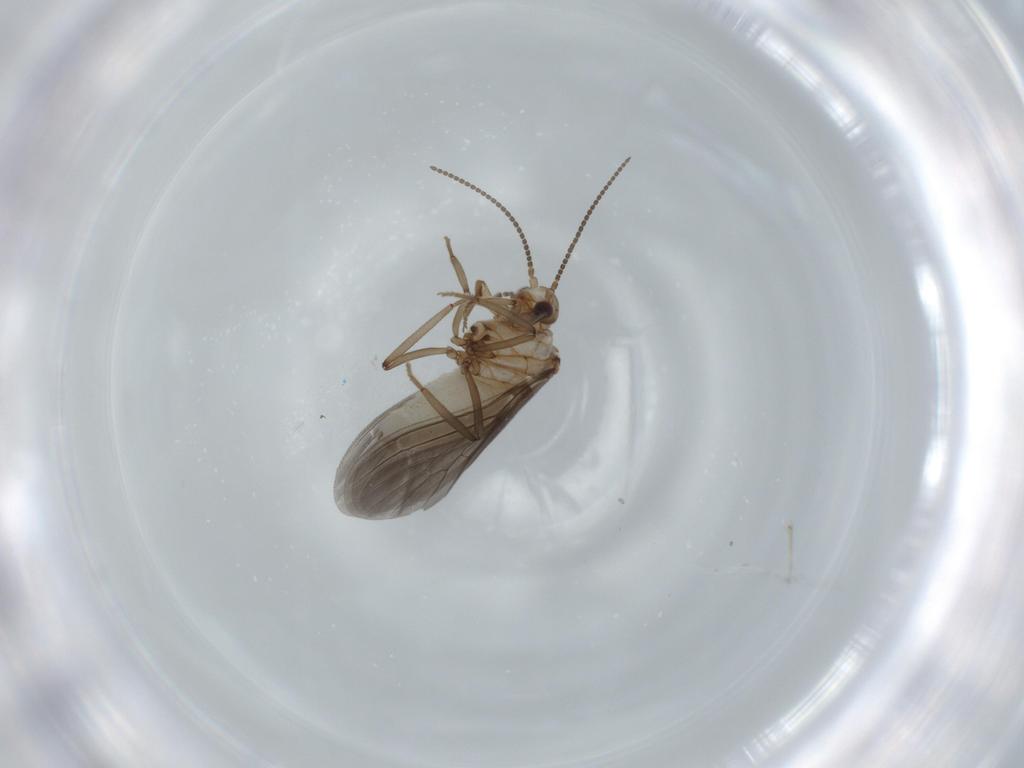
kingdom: Animalia
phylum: Arthropoda
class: Insecta
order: Neuroptera
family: Coniopterygidae
